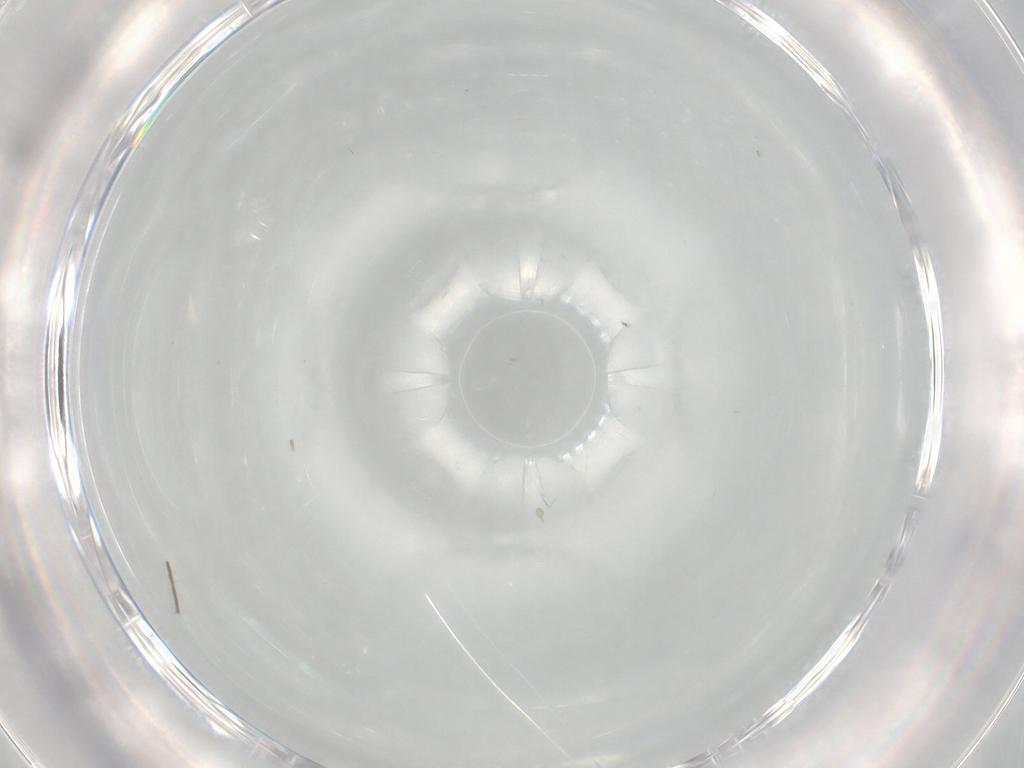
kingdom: Animalia
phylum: Arthropoda
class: Insecta
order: Diptera
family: Cecidomyiidae
